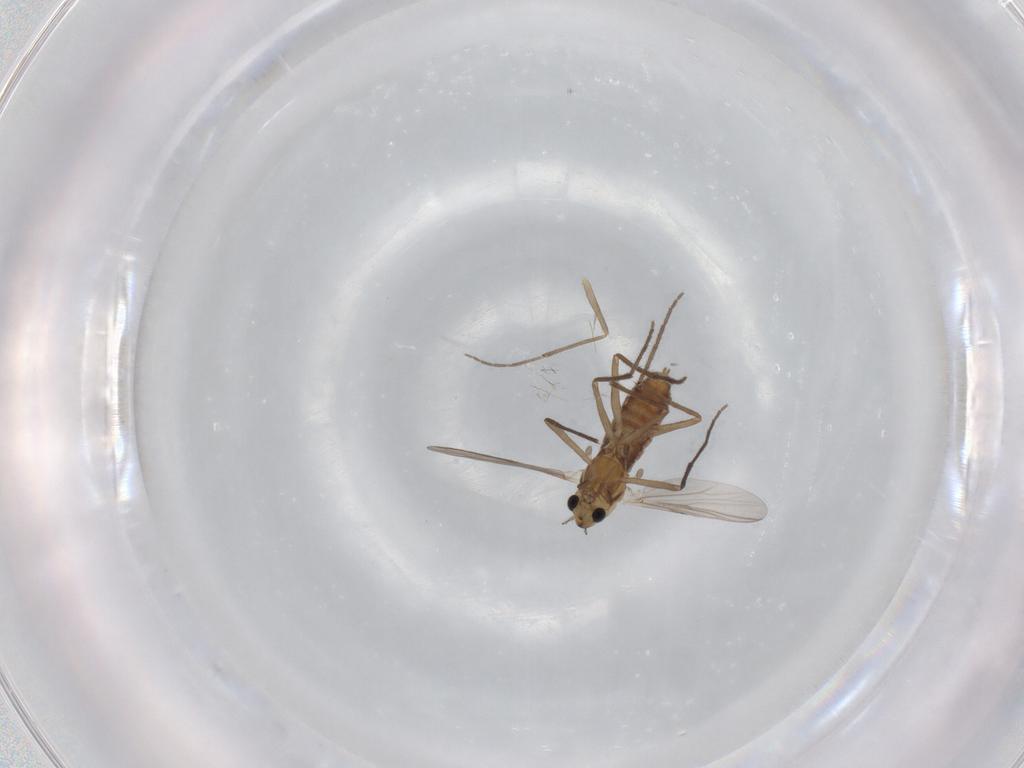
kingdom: Animalia
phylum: Arthropoda
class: Insecta
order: Diptera
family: Chironomidae
